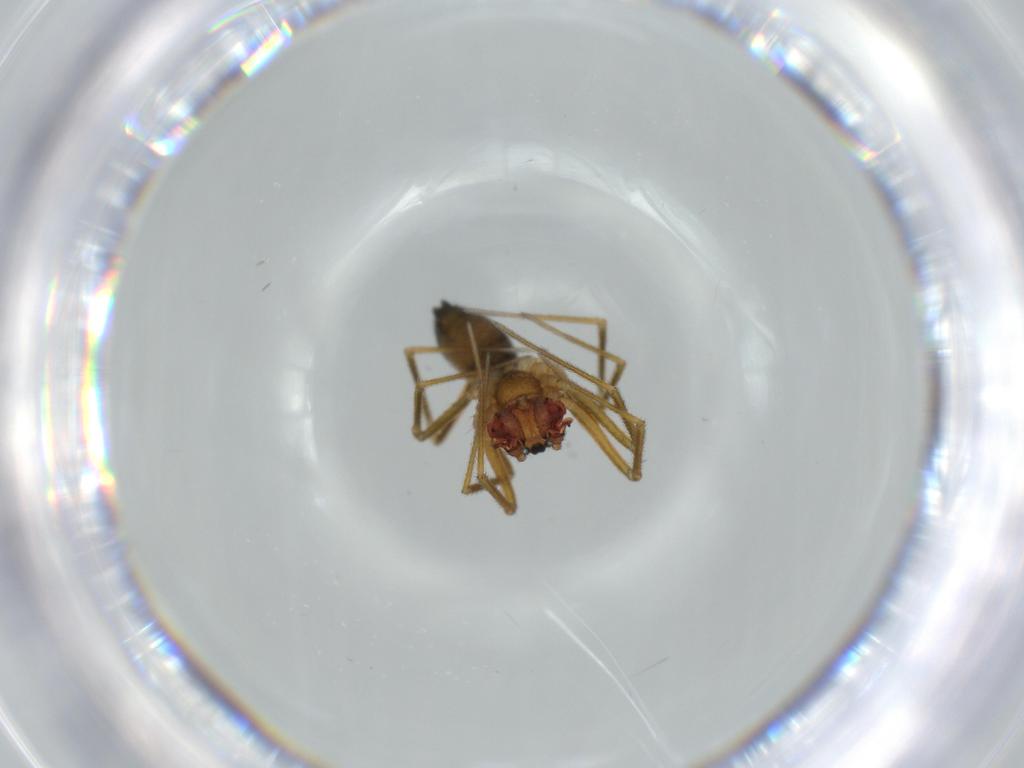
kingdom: Animalia
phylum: Arthropoda
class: Arachnida
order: Araneae
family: Linyphiidae
